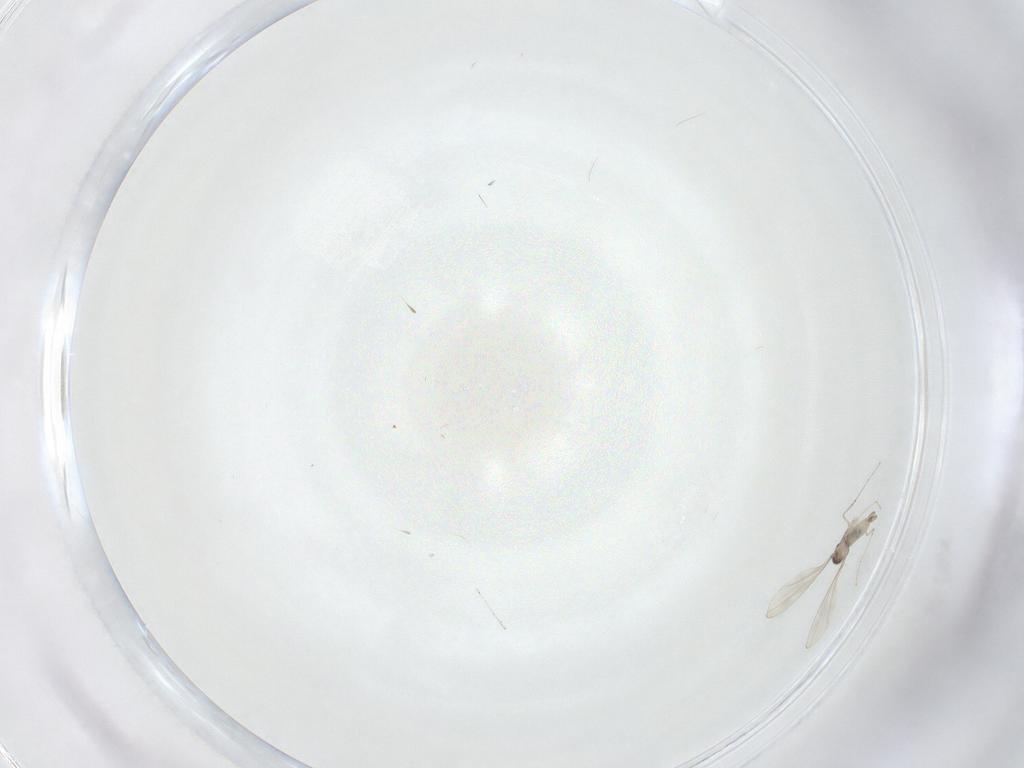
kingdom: Animalia
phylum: Arthropoda
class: Insecta
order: Diptera
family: Cecidomyiidae
